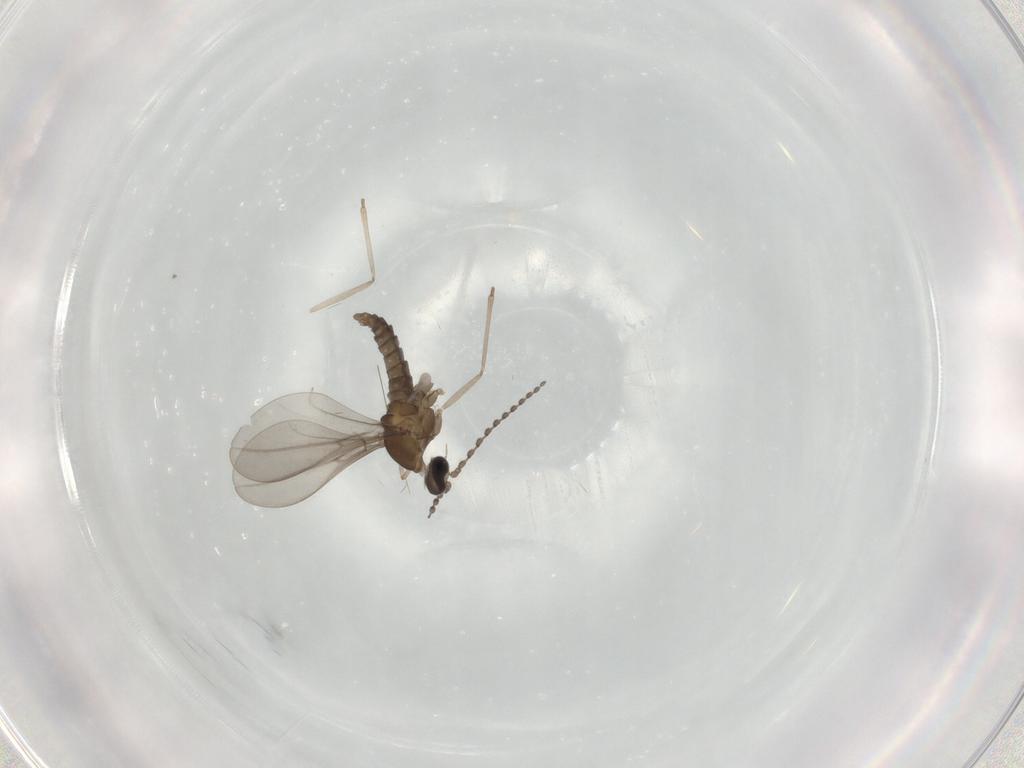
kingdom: Animalia
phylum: Arthropoda
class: Insecta
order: Diptera
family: Cecidomyiidae
